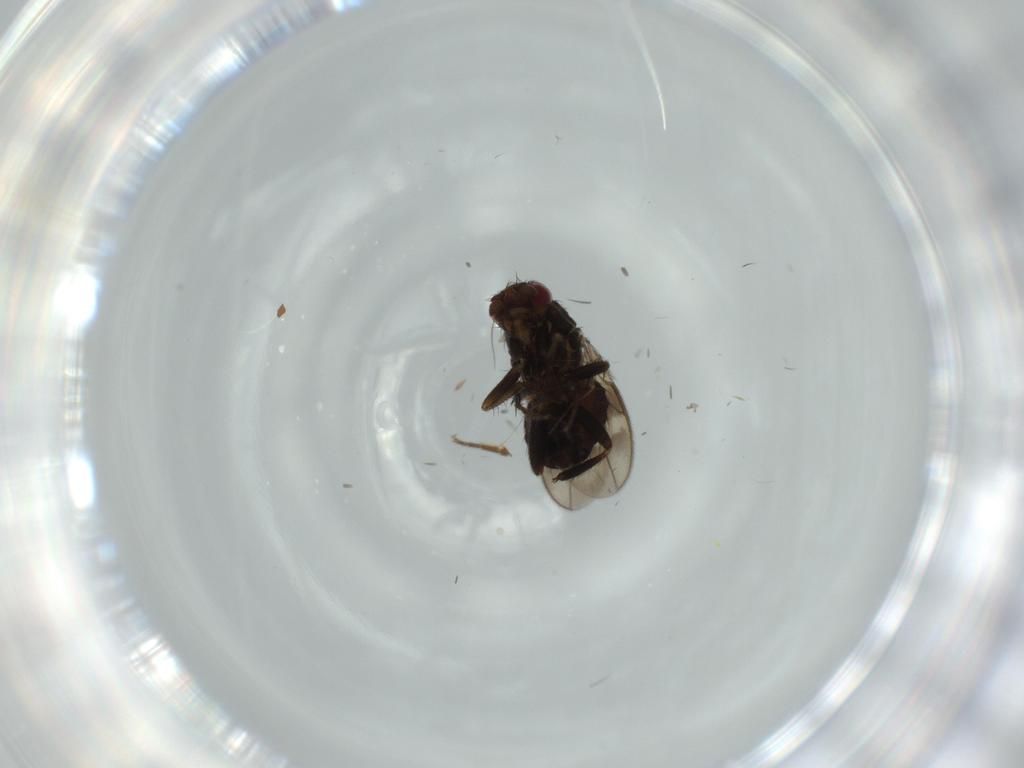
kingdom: Animalia
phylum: Arthropoda
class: Insecta
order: Diptera
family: Sphaeroceridae
